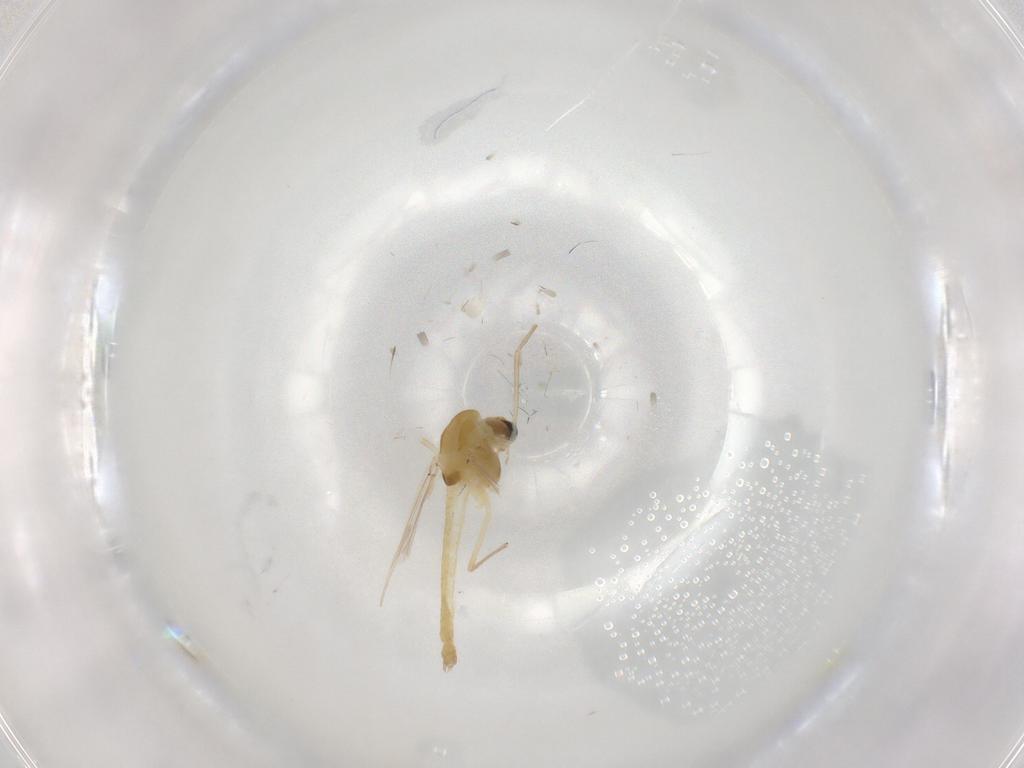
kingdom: Animalia
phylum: Arthropoda
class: Insecta
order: Diptera
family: Chironomidae
